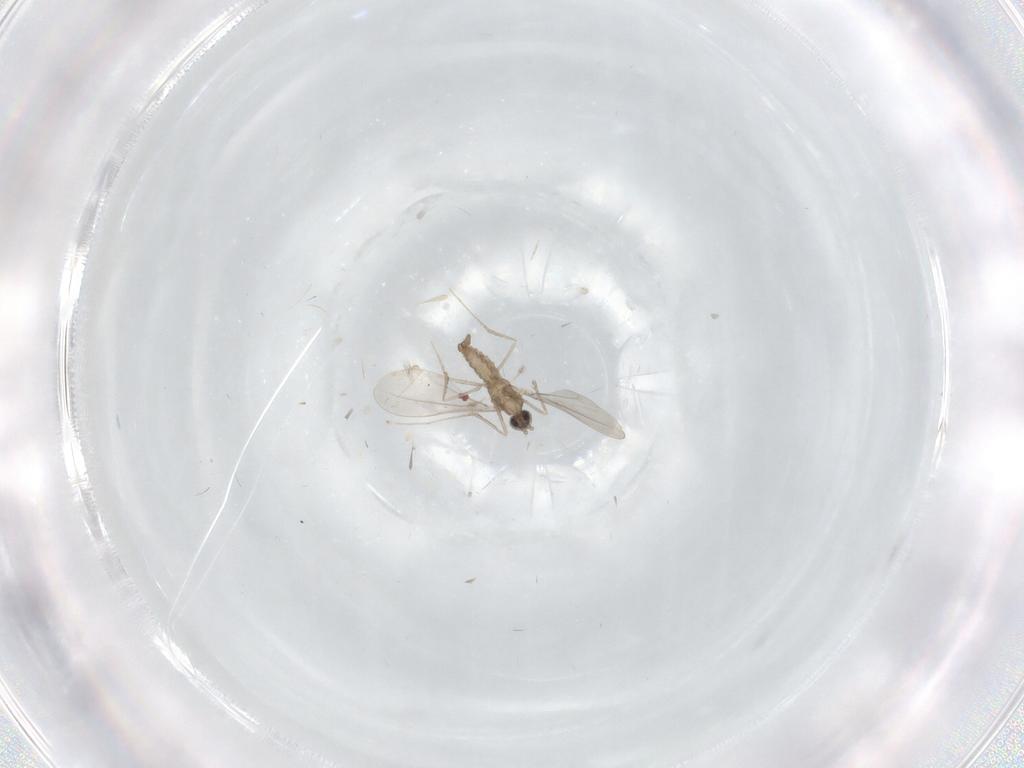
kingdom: Animalia
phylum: Arthropoda
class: Insecta
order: Diptera
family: Cecidomyiidae
